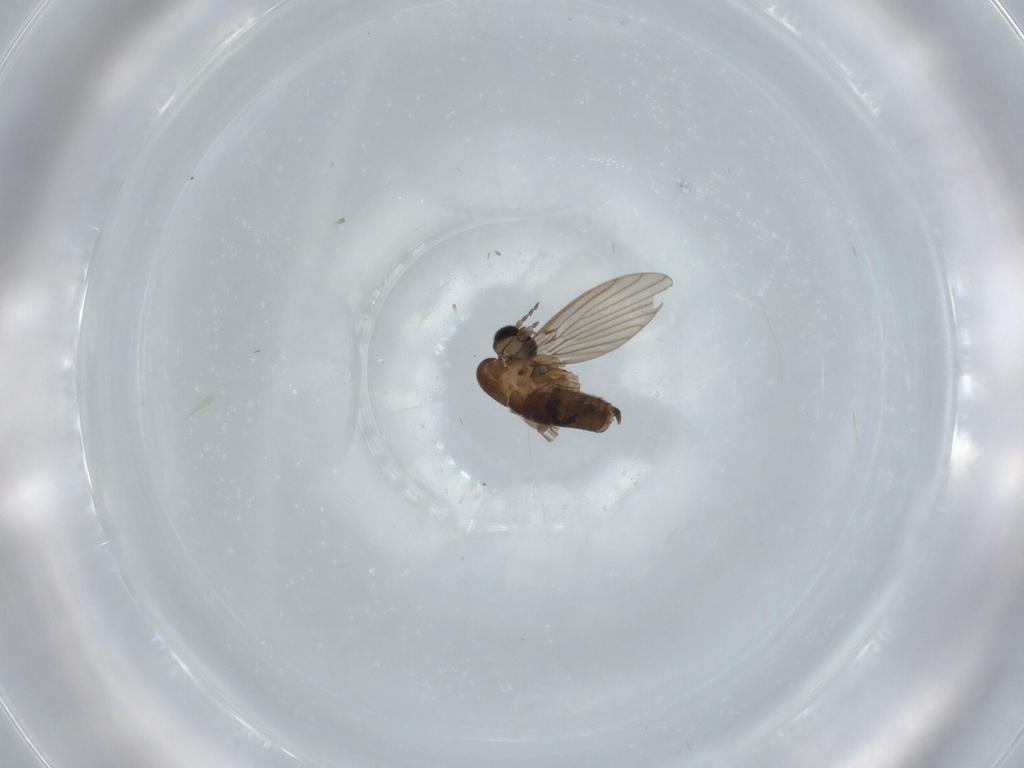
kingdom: Animalia
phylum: Arthropoda
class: Insecta
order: Diptera
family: Psychodidae
